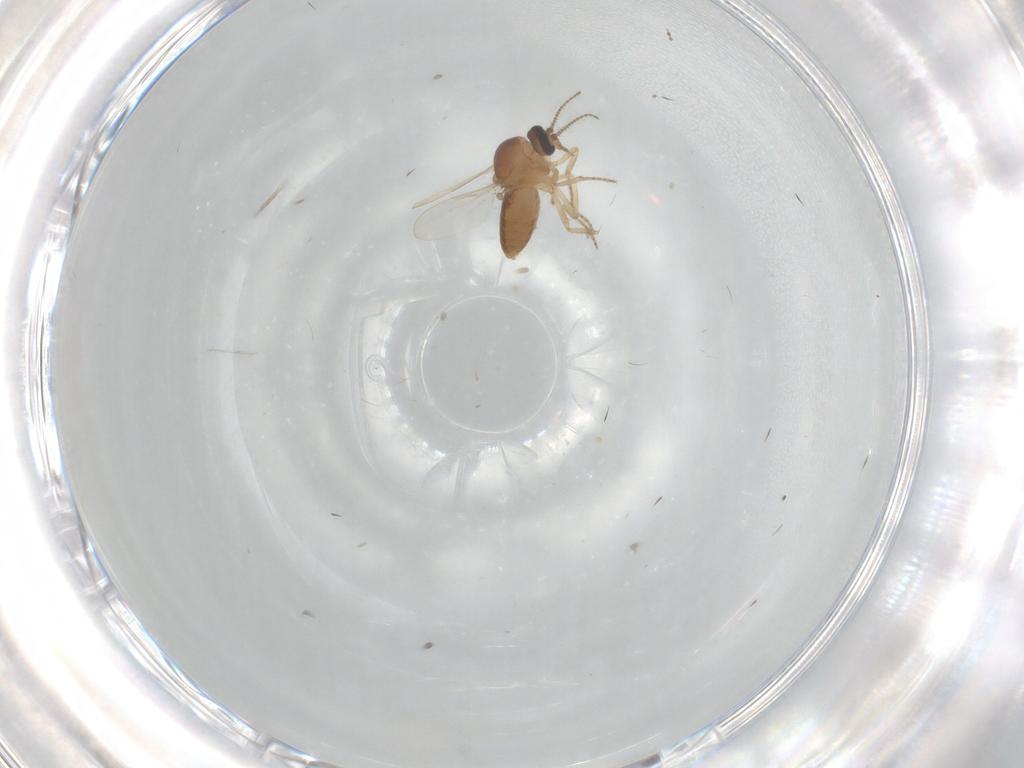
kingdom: Animalia
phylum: Arthropoda
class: Insecta
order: Diptera
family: Ceratopogonidae
